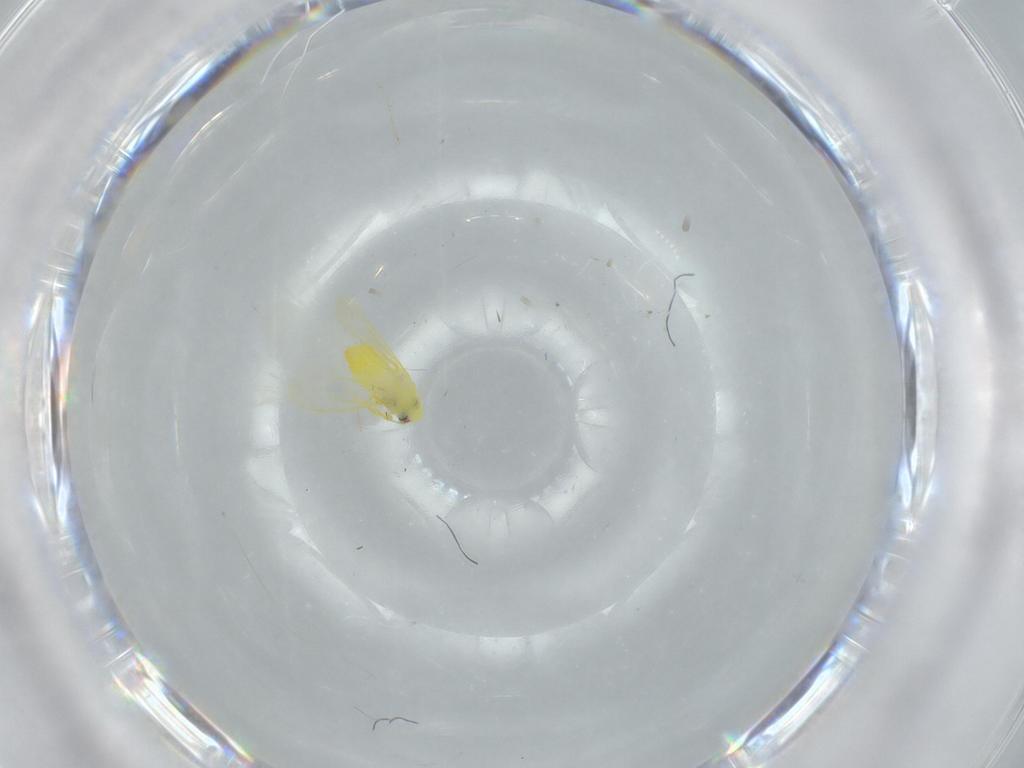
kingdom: Animalia
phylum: Arthropoda
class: Insecta
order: Hemiptera
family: Aleyrodidae
